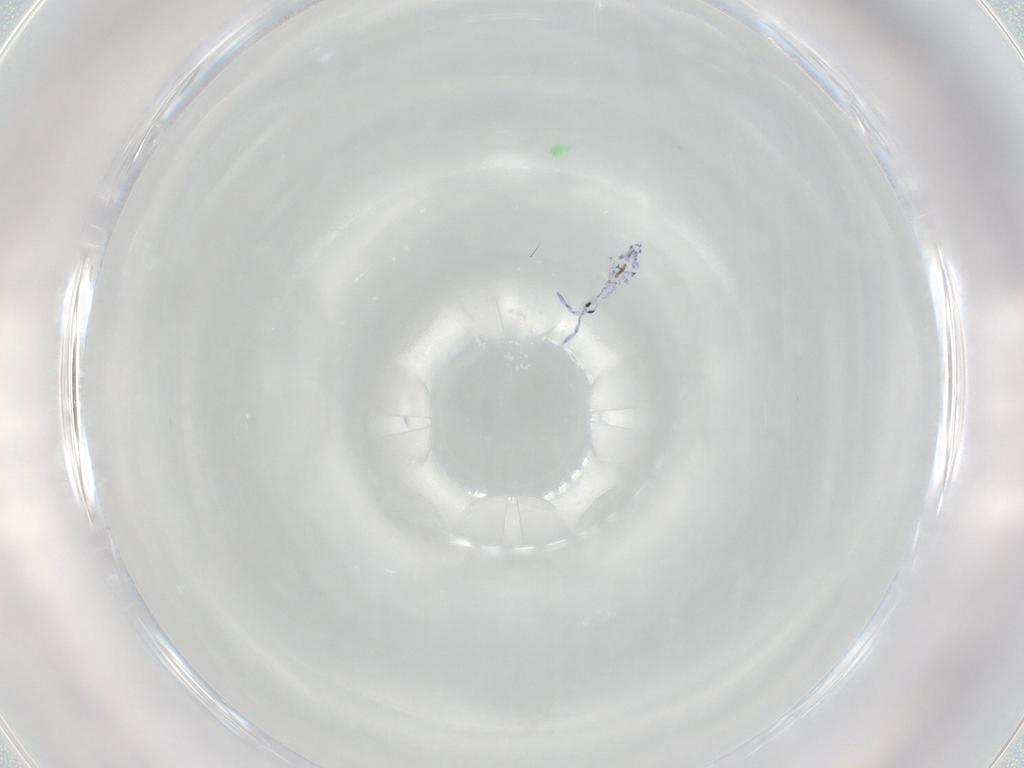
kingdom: Animalia
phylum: Arthropoda
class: Collembola
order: Entomobryomorpha
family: Entomobryidae
